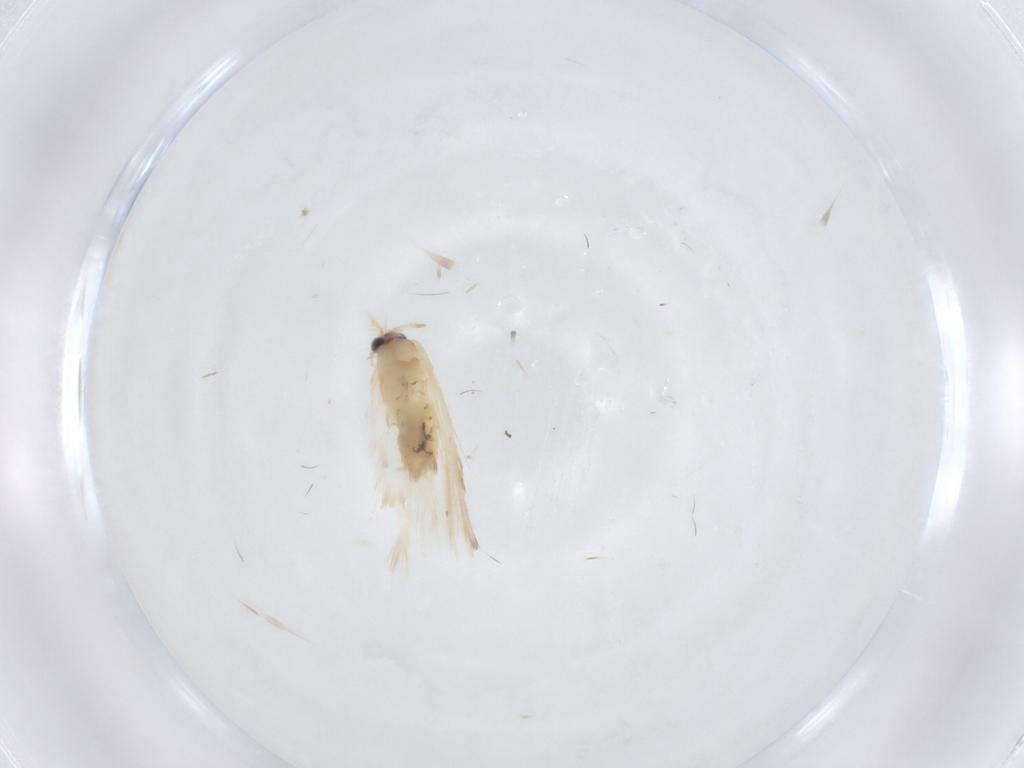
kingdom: Animalia
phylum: Arthropoda
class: Insecta
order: Lepidoptera
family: Nepticulidae
